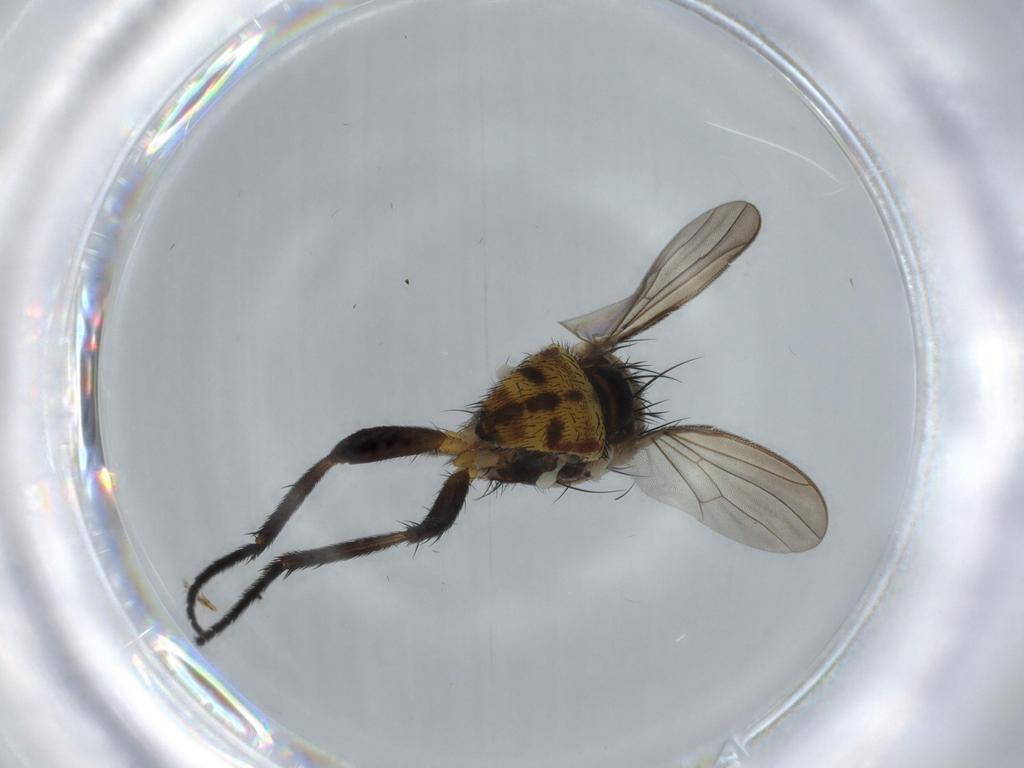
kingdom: Animalia
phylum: Arthropoda
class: Insecta
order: Diptera
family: Anthomyiidae
